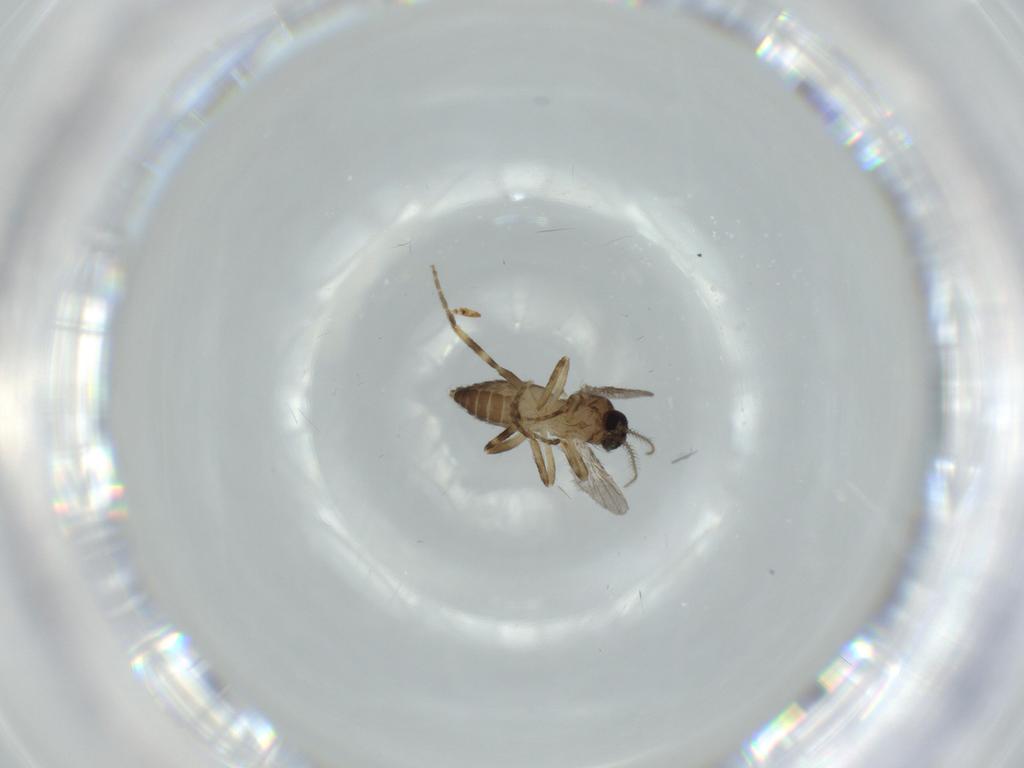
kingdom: Animalia
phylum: Arthropoda
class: Insecta
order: Diptera
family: Ceratopogonidae
